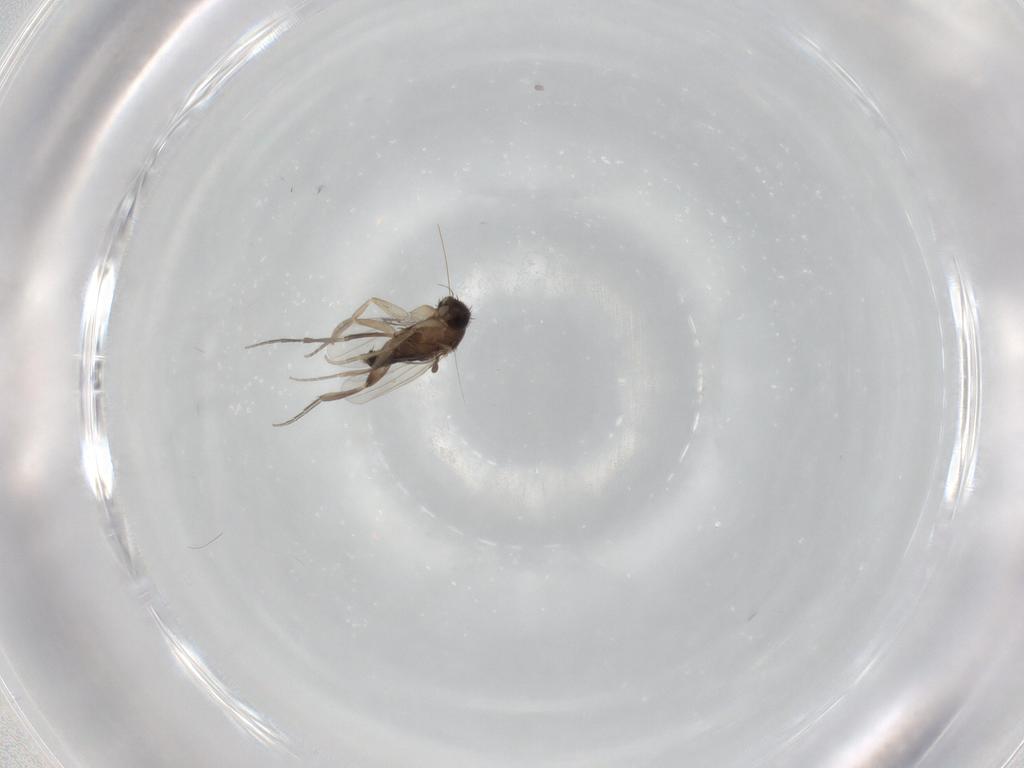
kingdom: Animalia
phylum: Arthropoda
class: Insecta
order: Diptera
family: Phoridae
